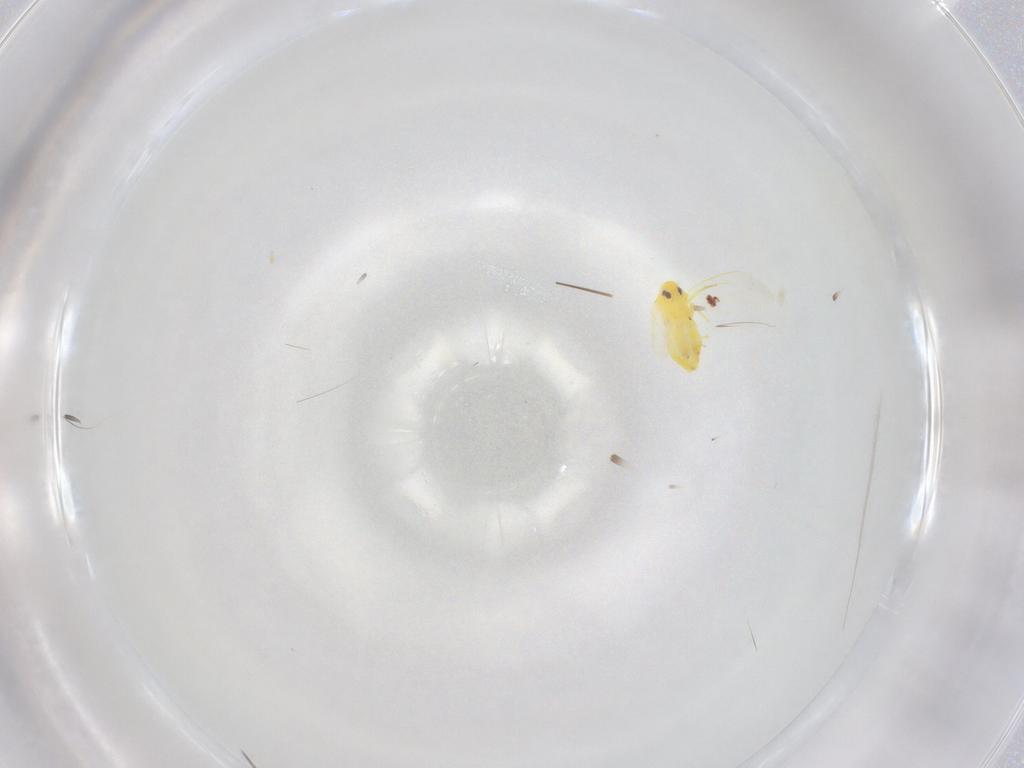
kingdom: Animalia
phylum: Arthropoda
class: Insecta
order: Hemiptera
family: Aleyrodidae
